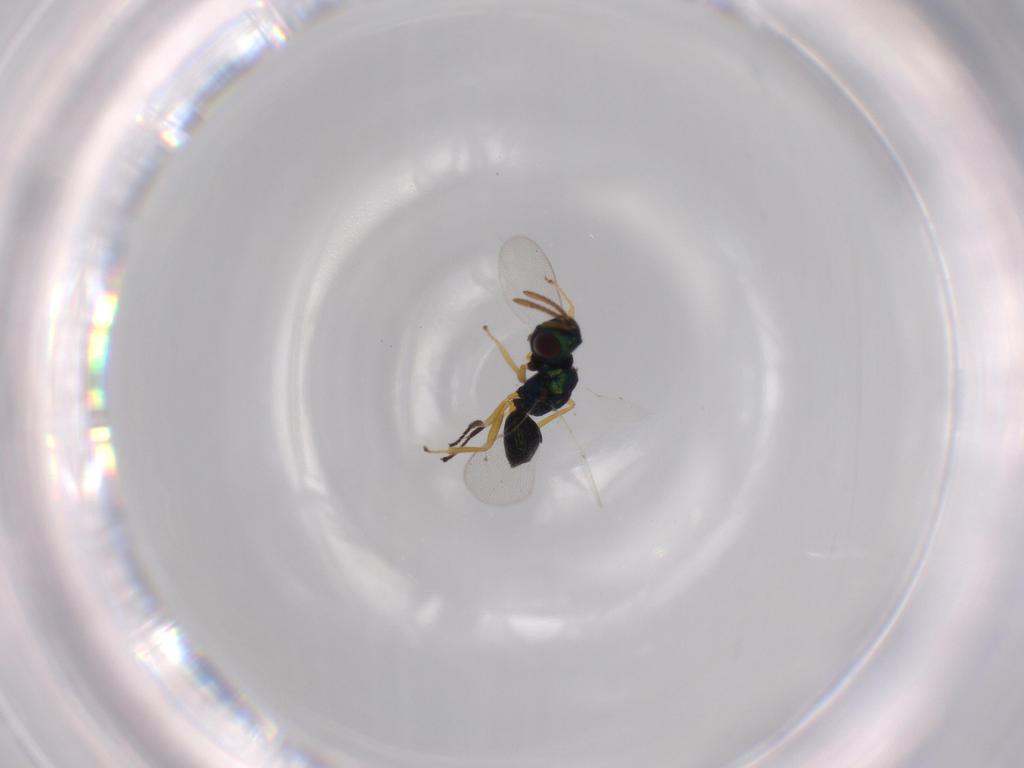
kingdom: Animalia
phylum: Arthropoda
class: Insecta
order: Hymenoptera
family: Pteromalidae
